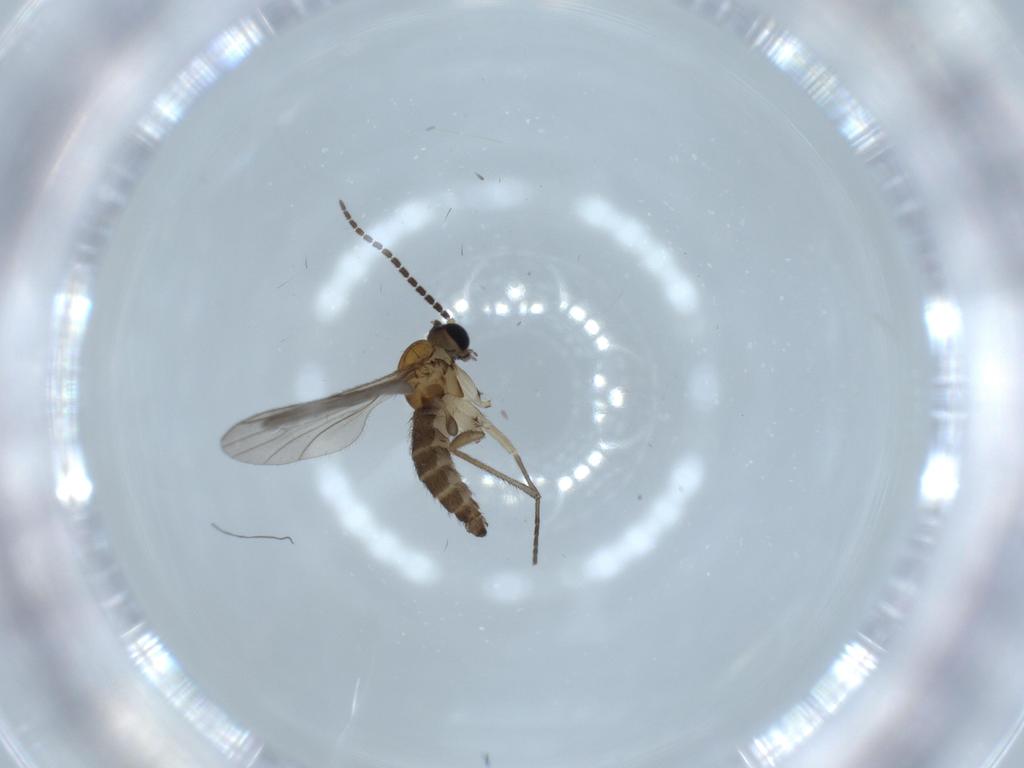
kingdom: Animalia
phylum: Arthropoda
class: Insecta
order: Diptera
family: Sciaridae
